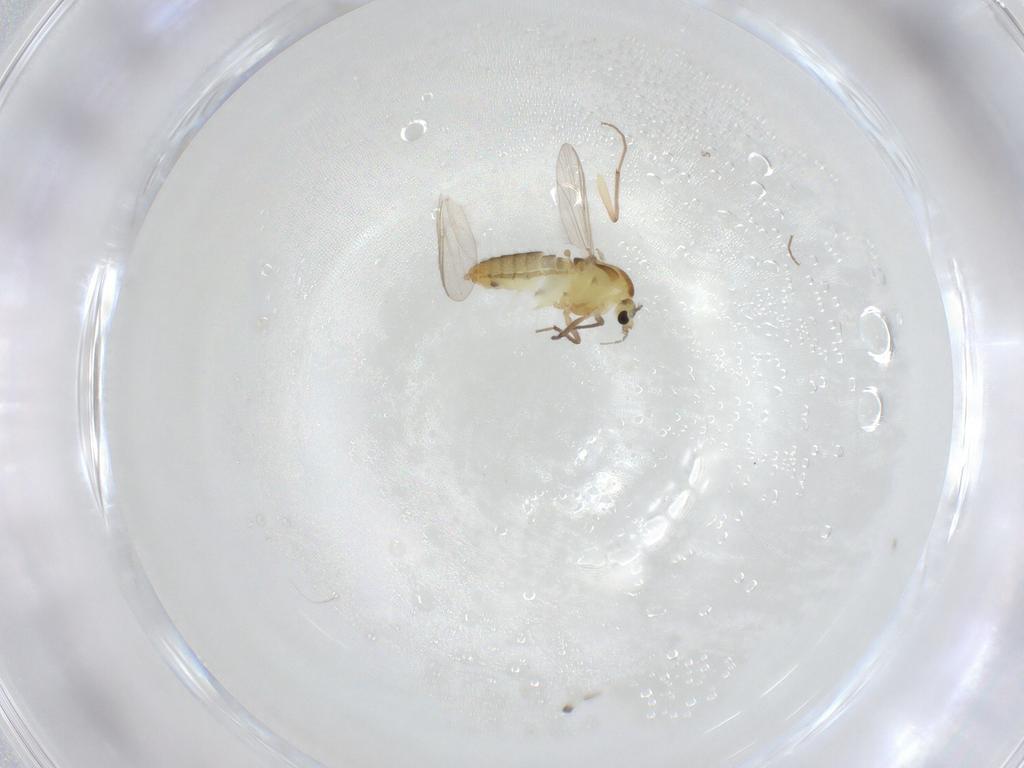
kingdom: Animalia
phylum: Arthropoda
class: Insecta
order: Diptera
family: Chironomidae
